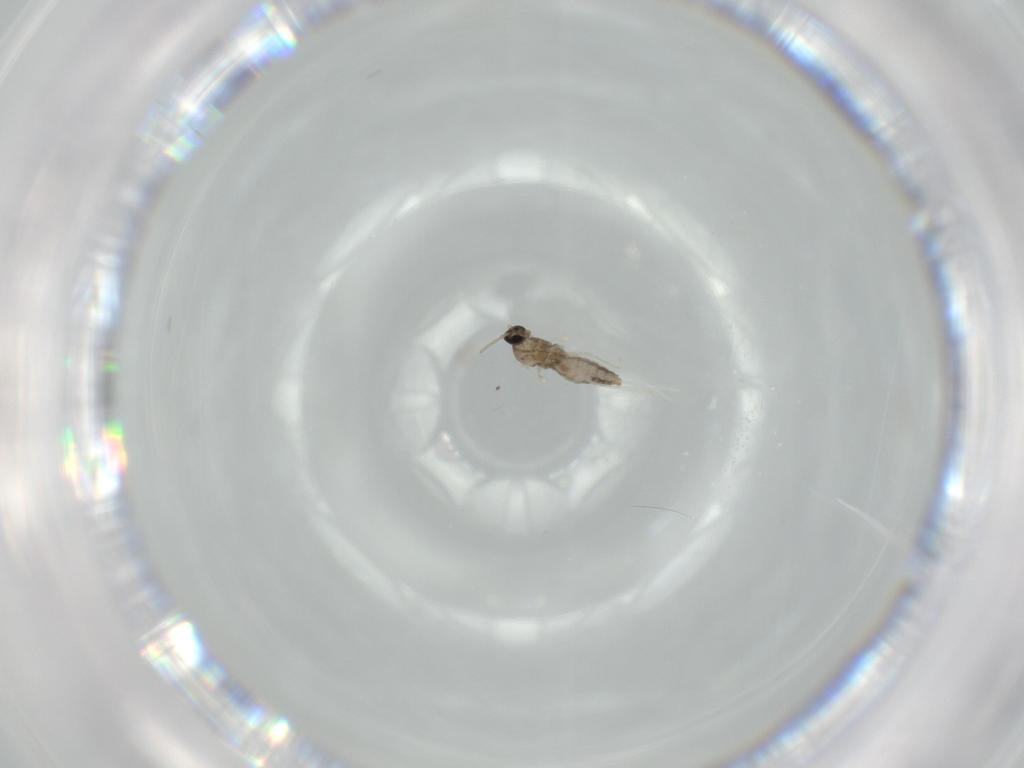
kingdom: Animalia
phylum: Arthropoda
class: Insecta
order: Diptera
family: Cecidomyiidae
